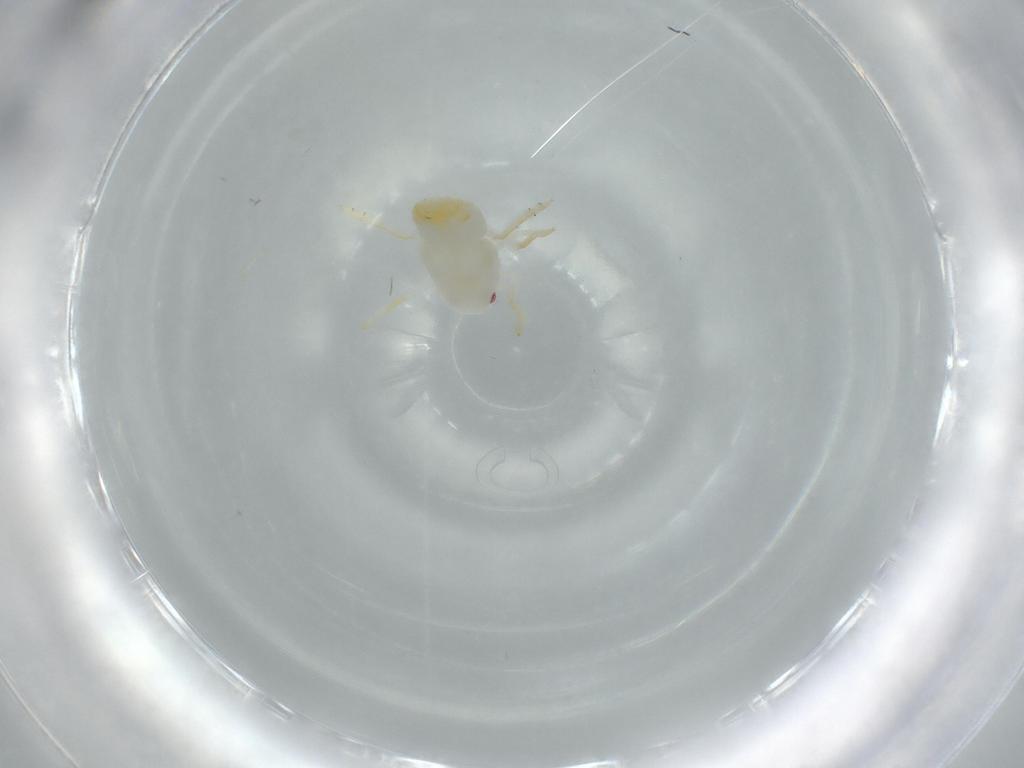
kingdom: Animalia
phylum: Arthropoda
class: Insecta
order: Hemiptera
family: Flatidae
